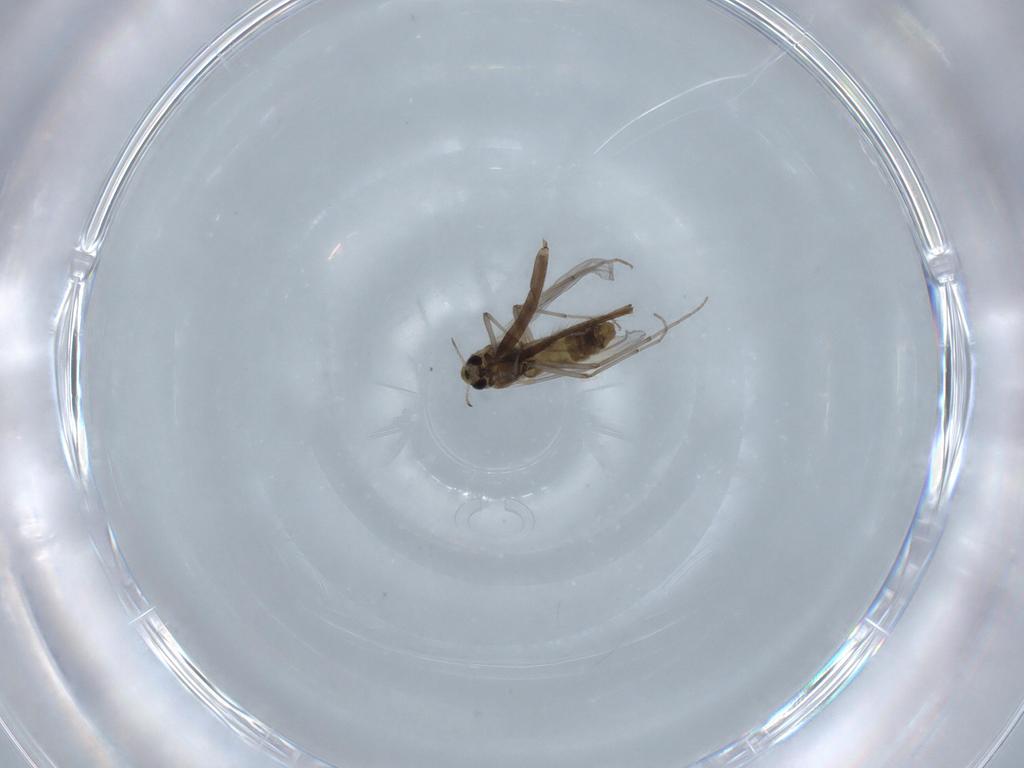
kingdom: Animalia
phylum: Arthropoda
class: Insecta
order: Diptera
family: Chironomidae
